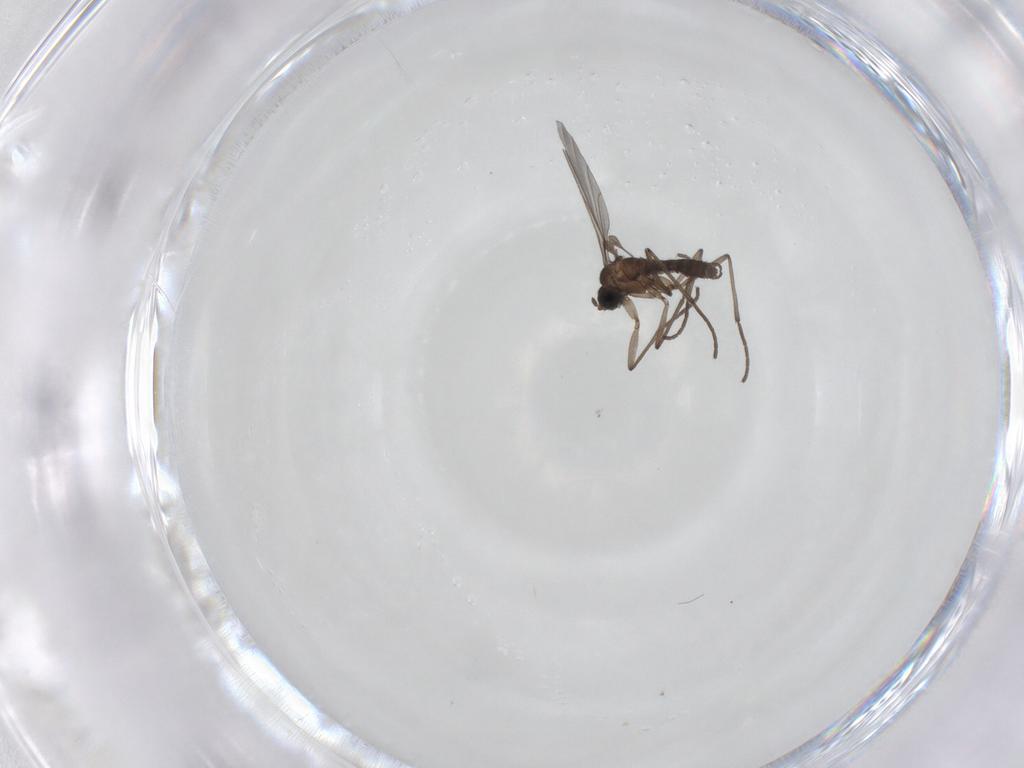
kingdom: Animalia
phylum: Arthropoda
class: Insecta
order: Diptera
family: Sciaridae
